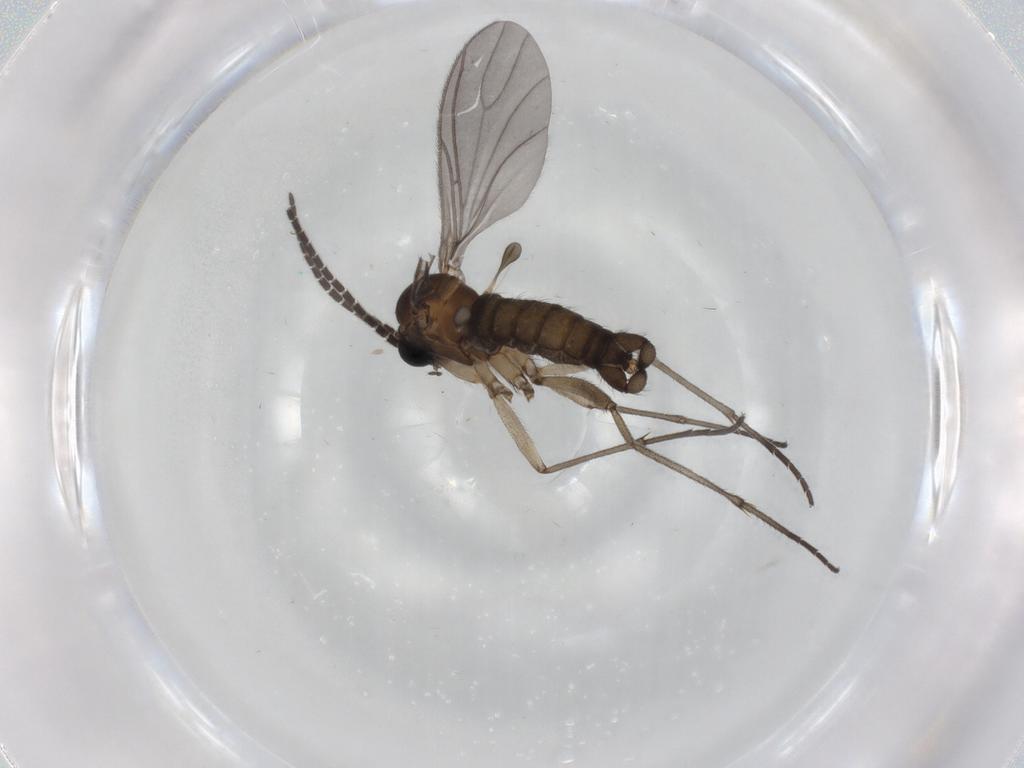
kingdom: Animalia
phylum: Arthropoda
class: Insecta
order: Diptera
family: Sciaridae
